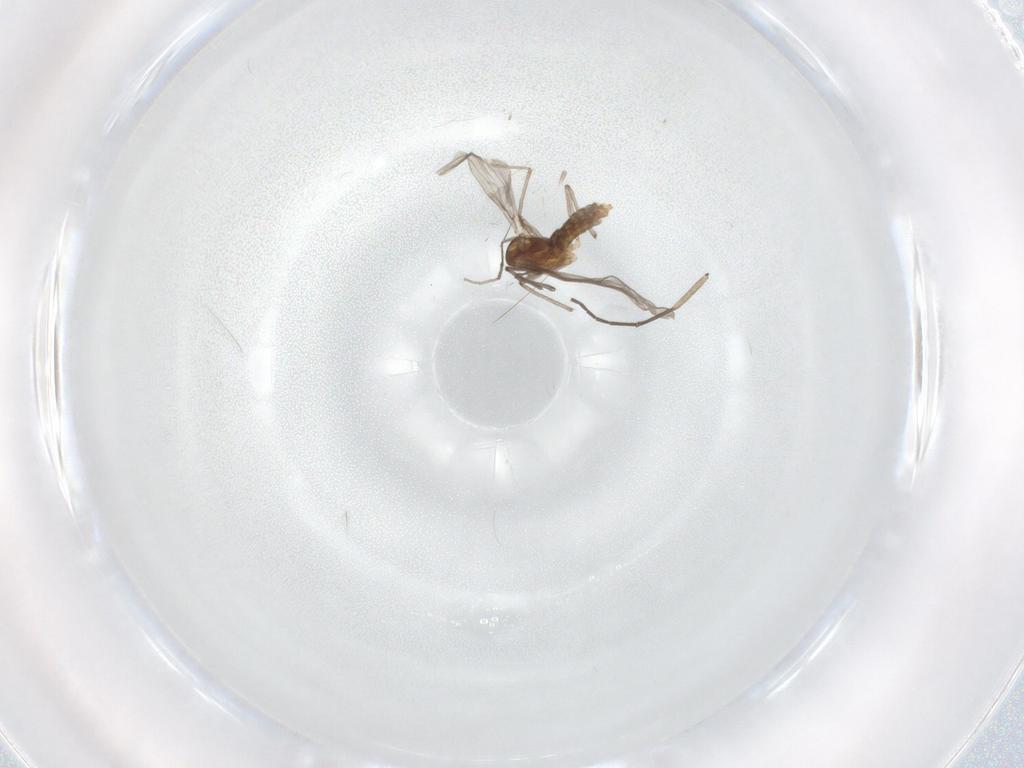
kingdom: Animalia
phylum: Arthropoda
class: Insecta
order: Diptera
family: Chironomidae
